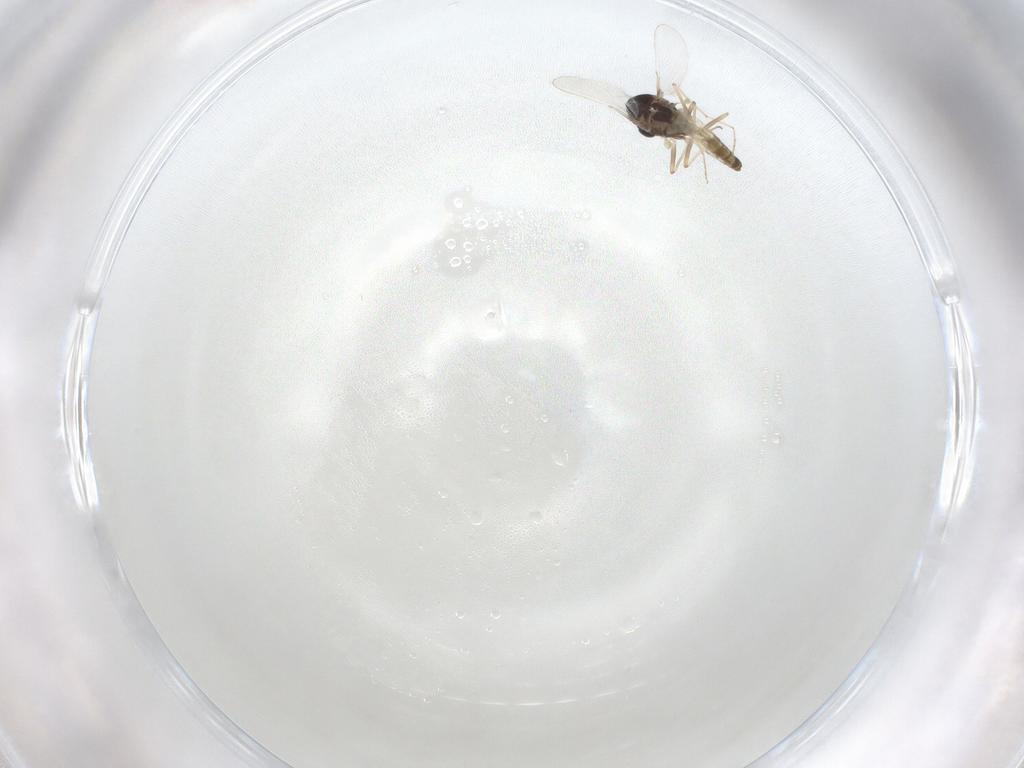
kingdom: Animalia
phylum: Arthropoda
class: Insecta
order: Diptera
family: Chironomidae
